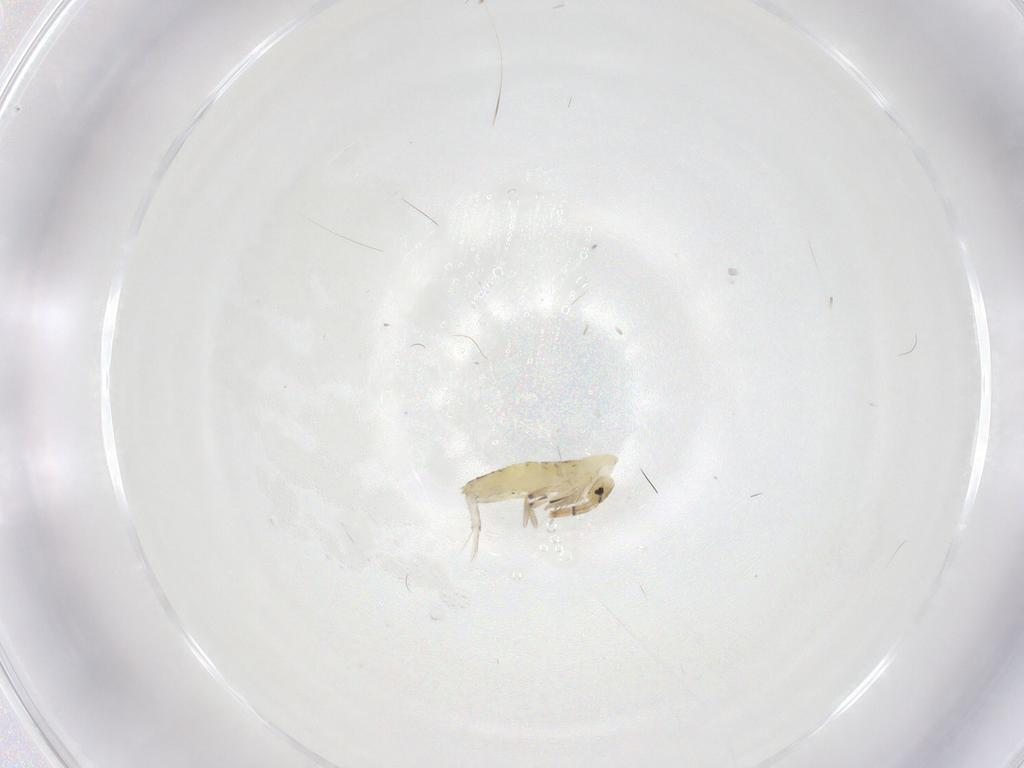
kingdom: Animalia
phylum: Arthropoda
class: Collembola
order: Entomobryomorpha
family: Entomobryidae
